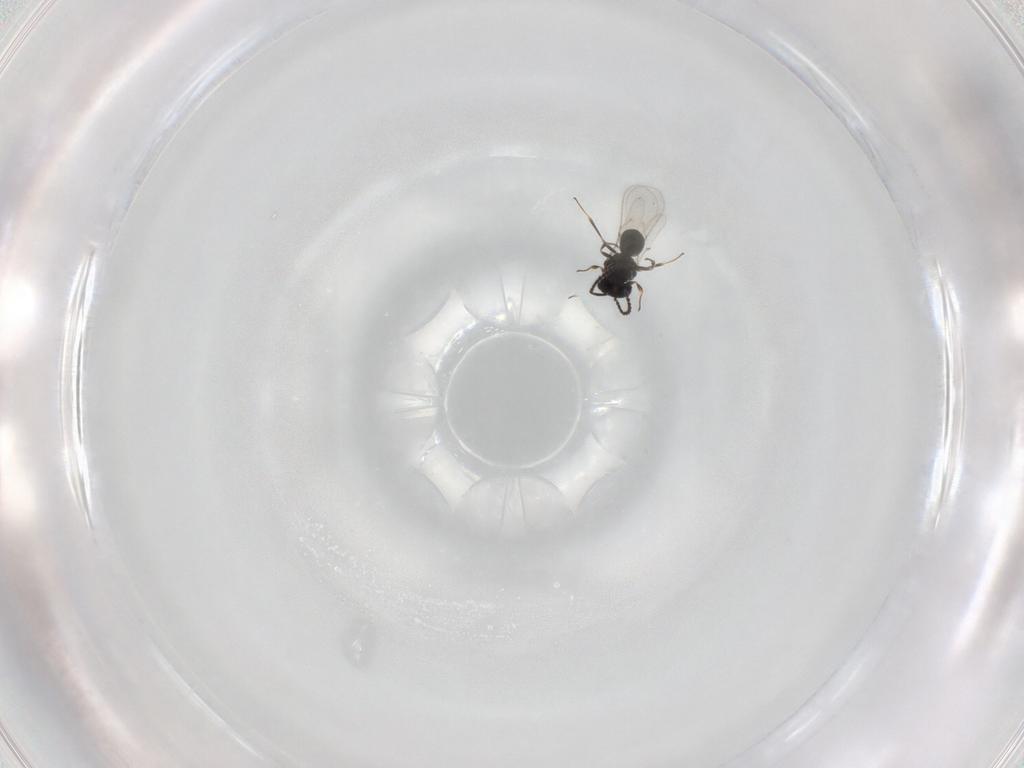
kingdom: Animalia
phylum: Arthropoda
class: Insecta
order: Hymenoptera
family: Scelionidae
